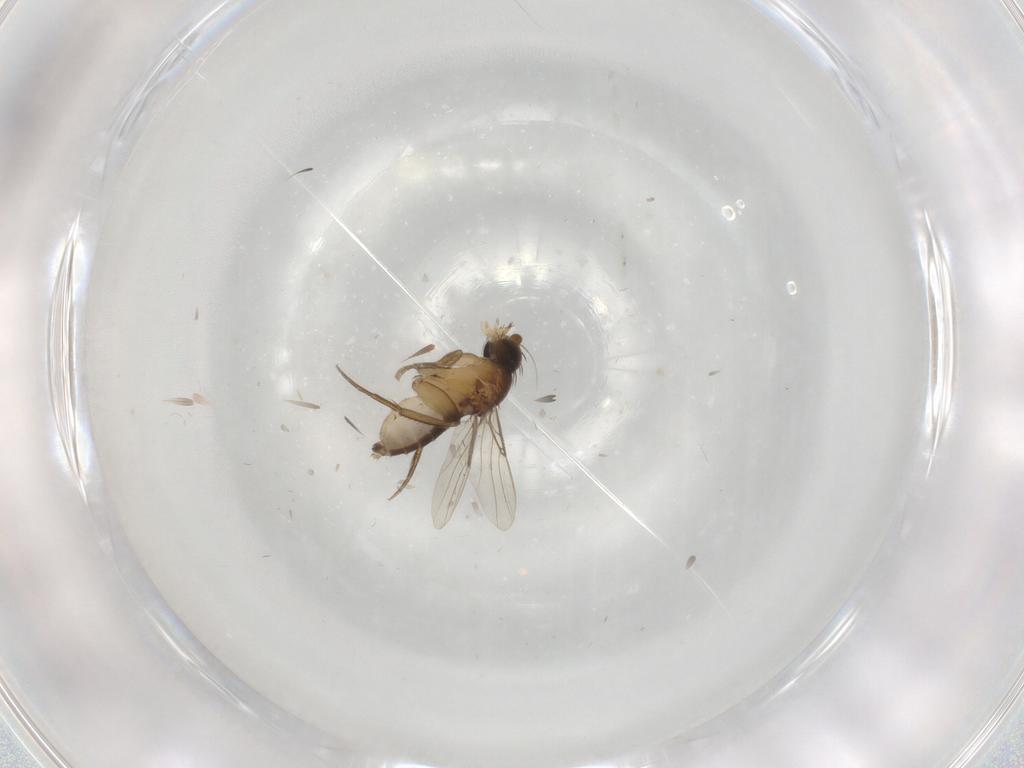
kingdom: Animalia
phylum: Arthropoda
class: Insecta
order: Diptera
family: Phoridae
